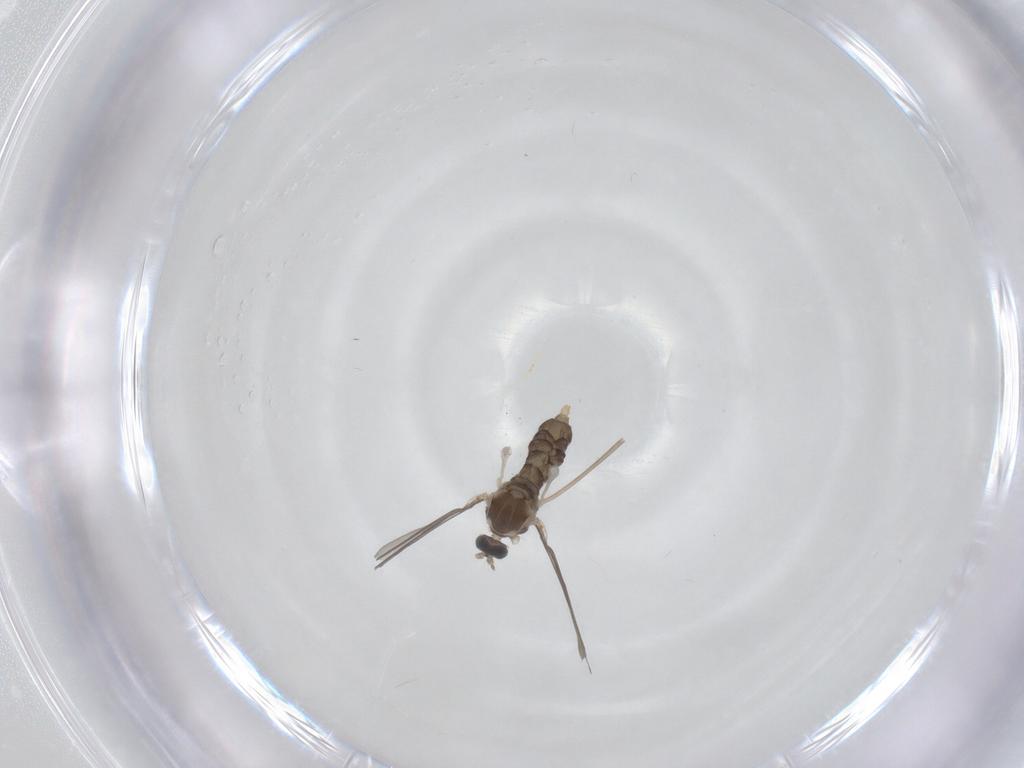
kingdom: Animalia
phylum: Arthropoda
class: Insecta
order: Diptera
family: Cecidomyiidae
